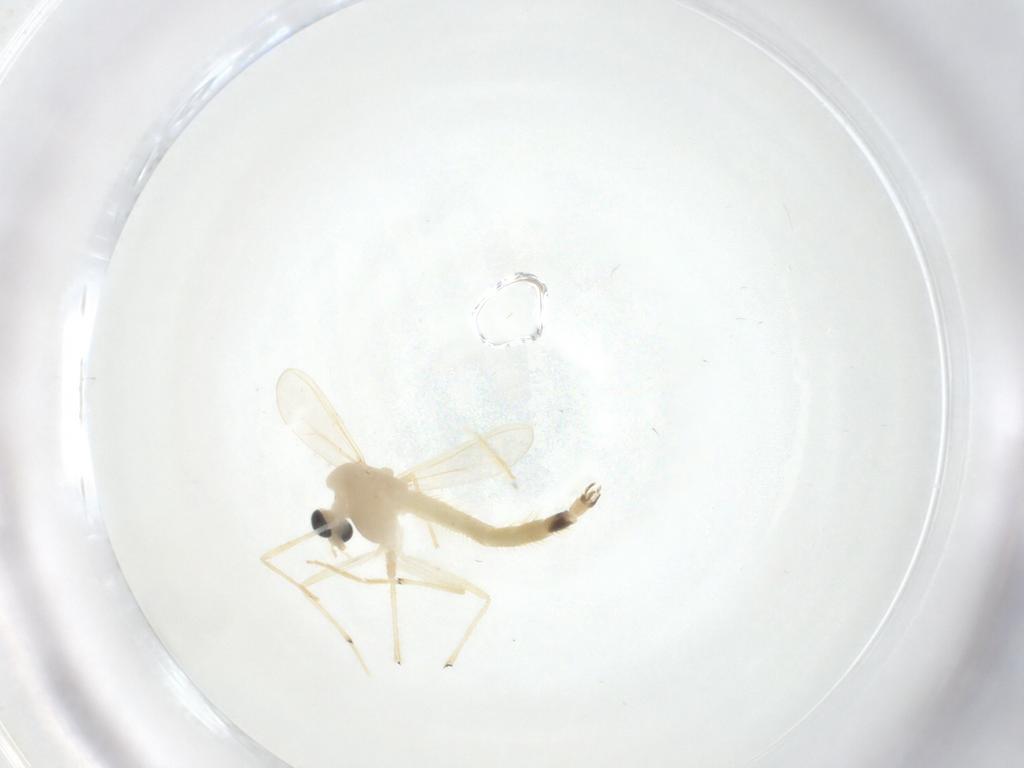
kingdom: Animalia
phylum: Arthropoda
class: Insecta
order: Diptera
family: Chironomidae
